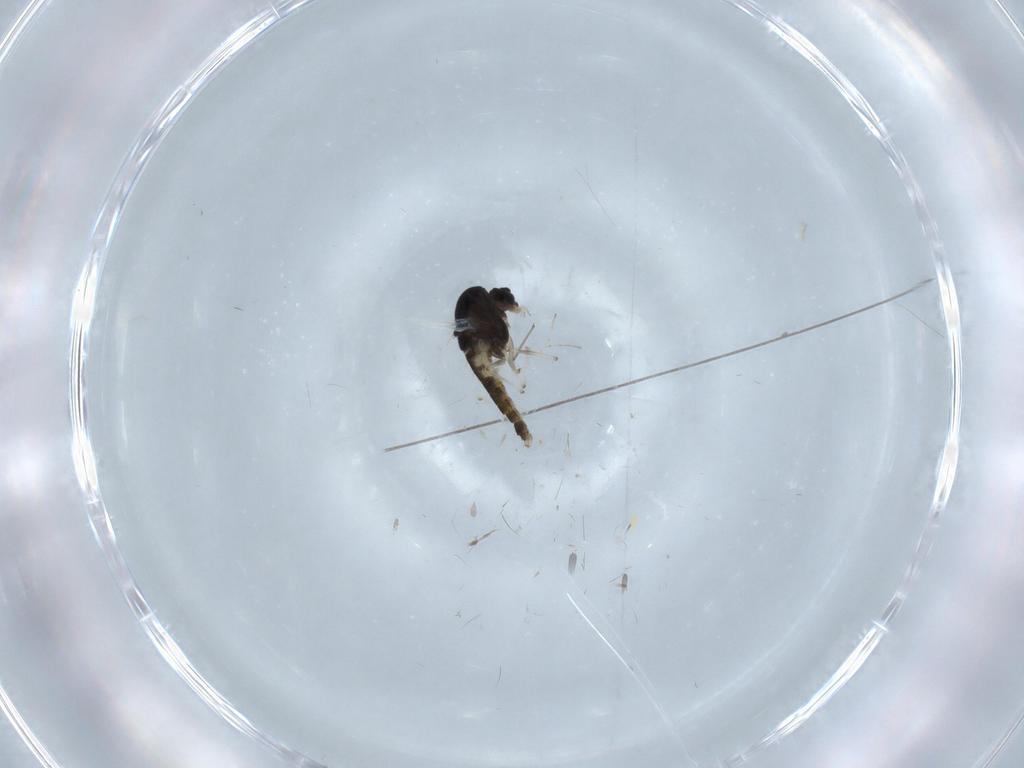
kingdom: Animalia
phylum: Arthropoda
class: Insecta
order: Diptera
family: Chironomidae
